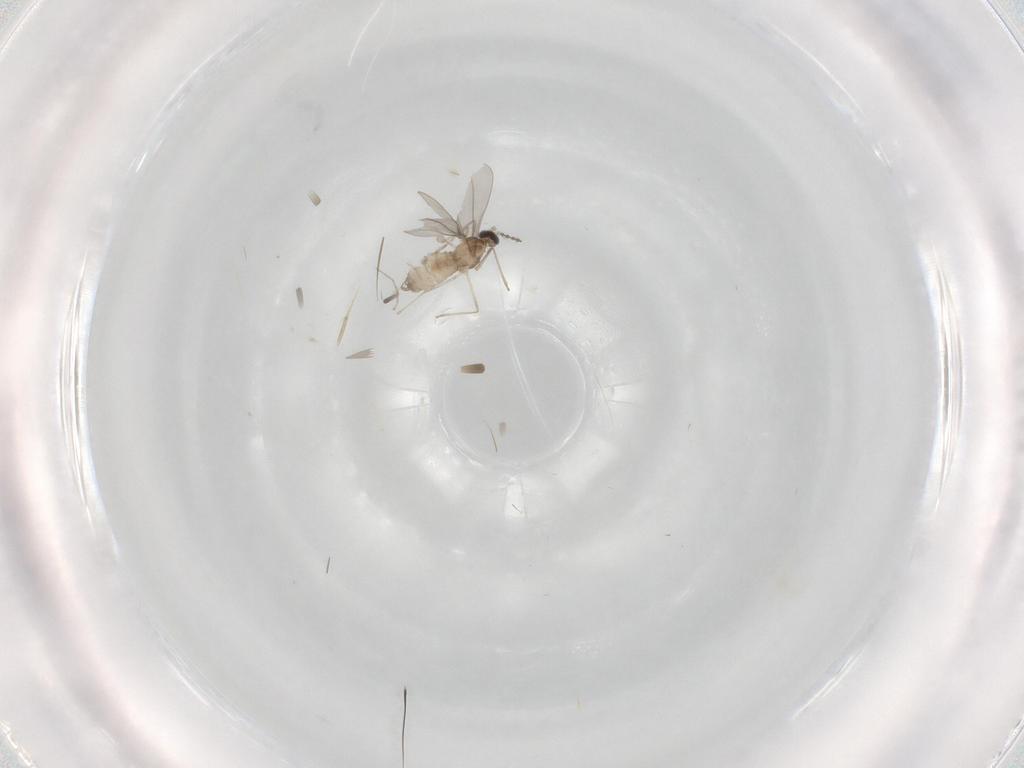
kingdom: Animalia
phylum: Arthropoda
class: Insecta
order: Diptera
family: Cecidomyiidae
